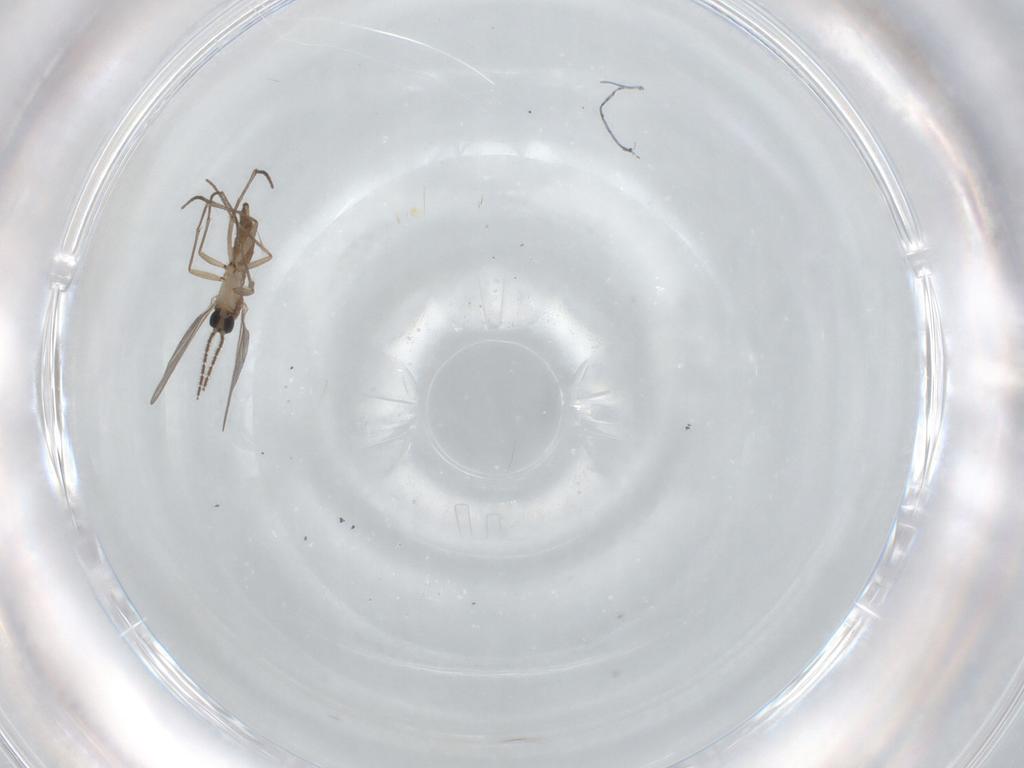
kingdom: Animalia
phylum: Arthropoda
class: Insecta
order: Diptera
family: Sciaridae
